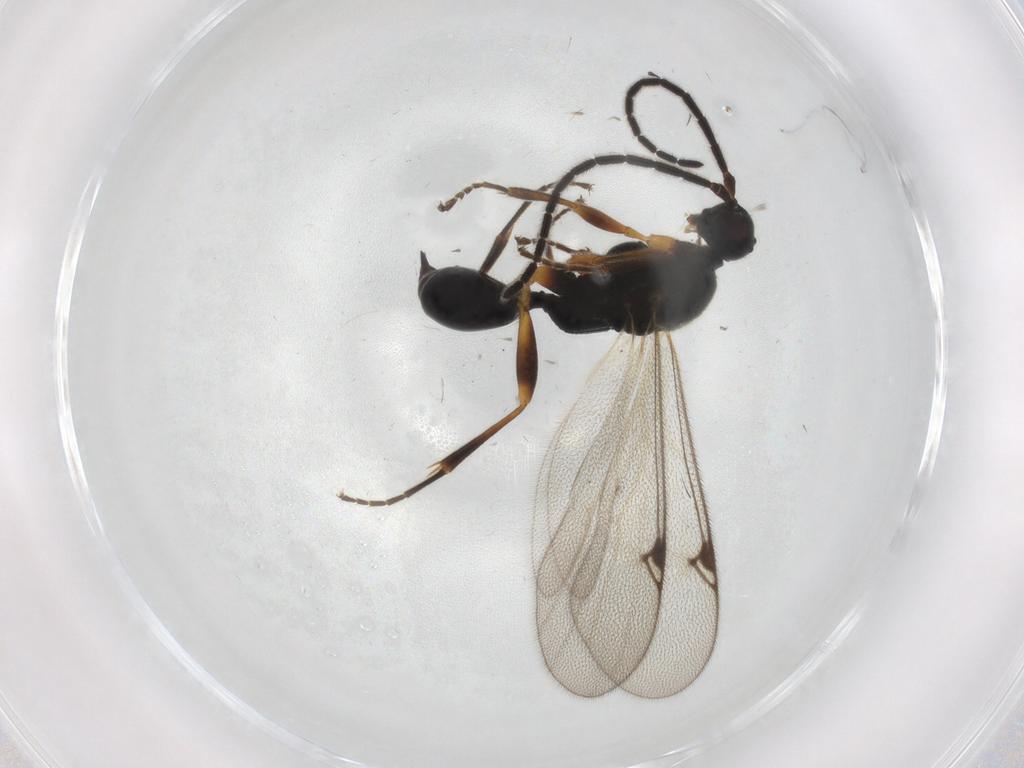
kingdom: Animalia
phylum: Arthropoda
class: Insecta
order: Hymenoptera
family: Proctotrupidae
